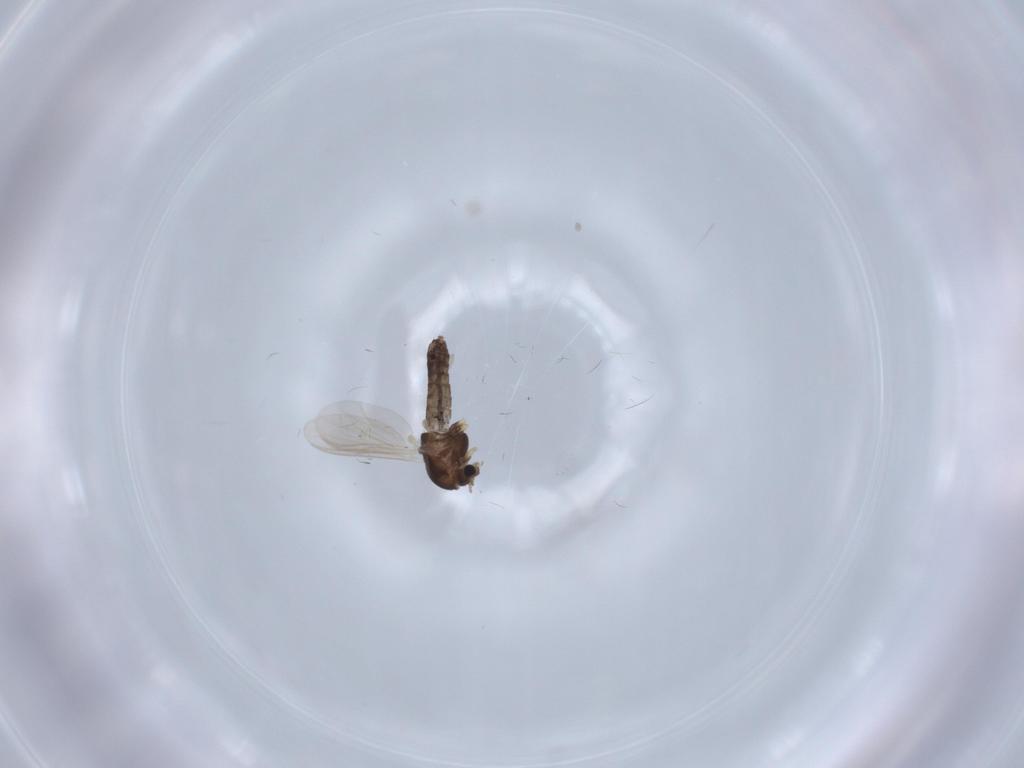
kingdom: Animalia
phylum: Arthropoda
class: Insecta
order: Diptera
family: Chironomidae
